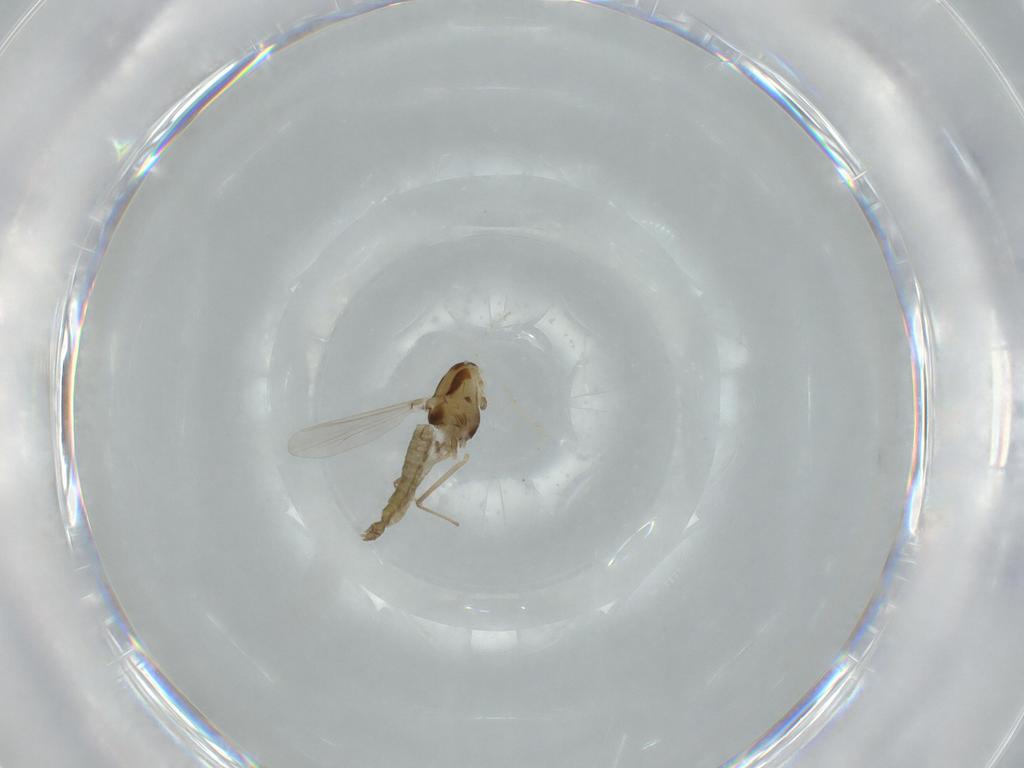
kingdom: Animalia
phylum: Arthropoda
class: Insecta
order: Diptera
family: Chironomidae
